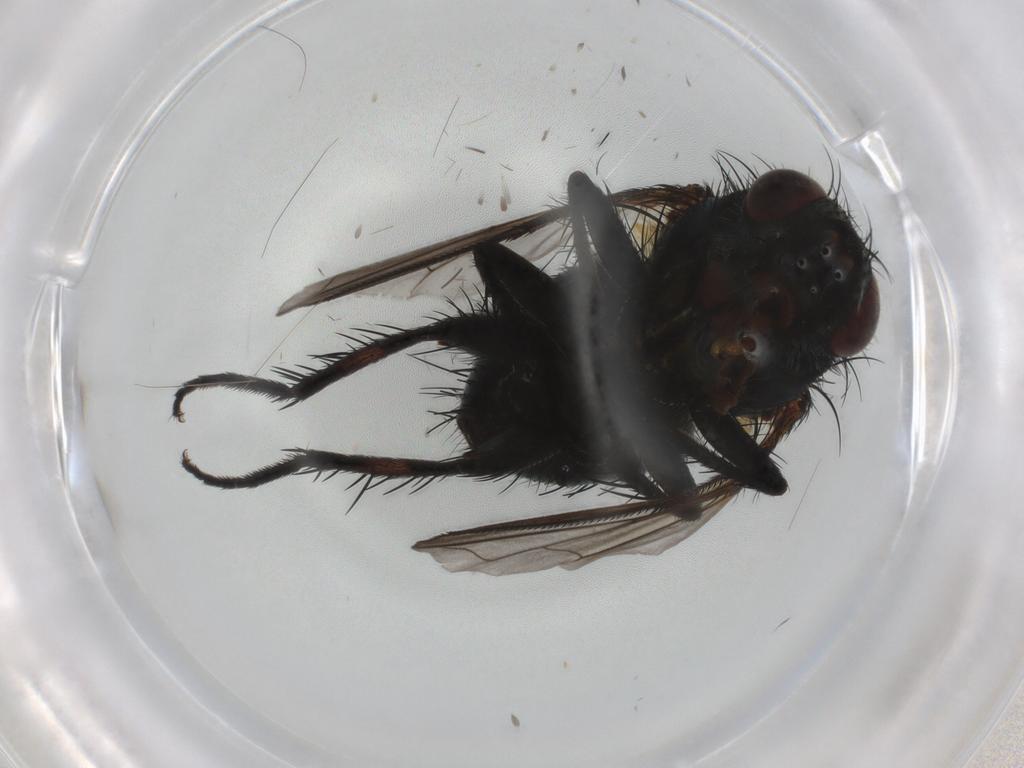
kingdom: Animalia
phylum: Arthropoda
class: Insecta
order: Diptera
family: Tachinidae
